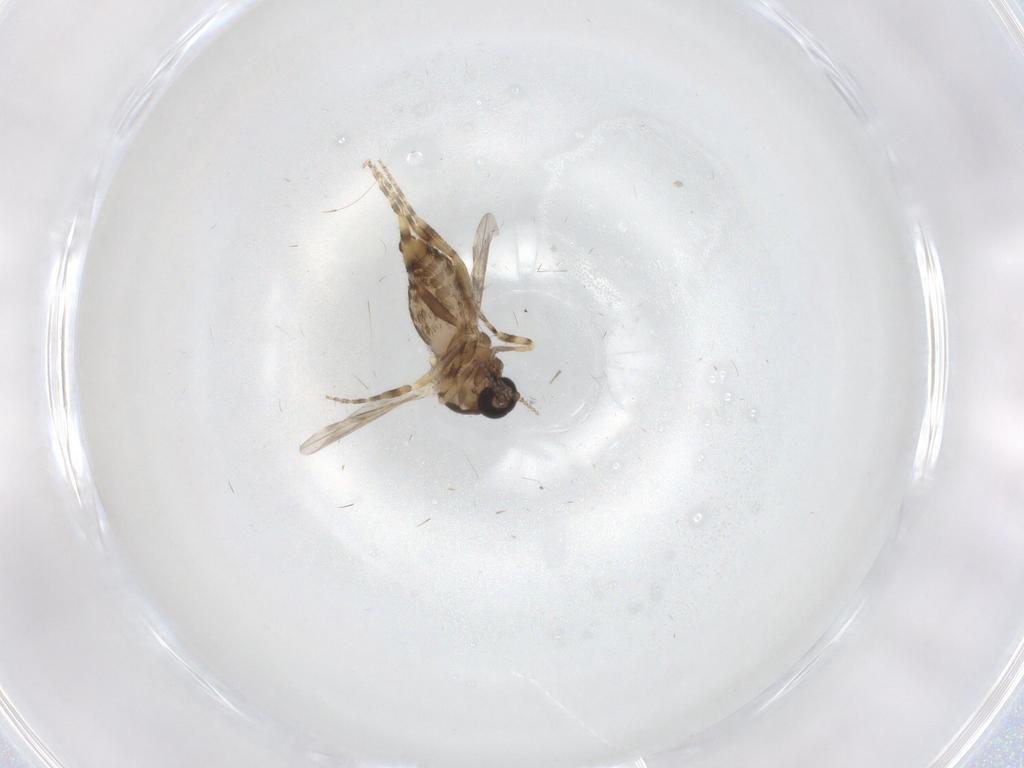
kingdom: Animalia
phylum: Arthropoda
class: Insecta
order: Diptera
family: Ceratopogonidae
